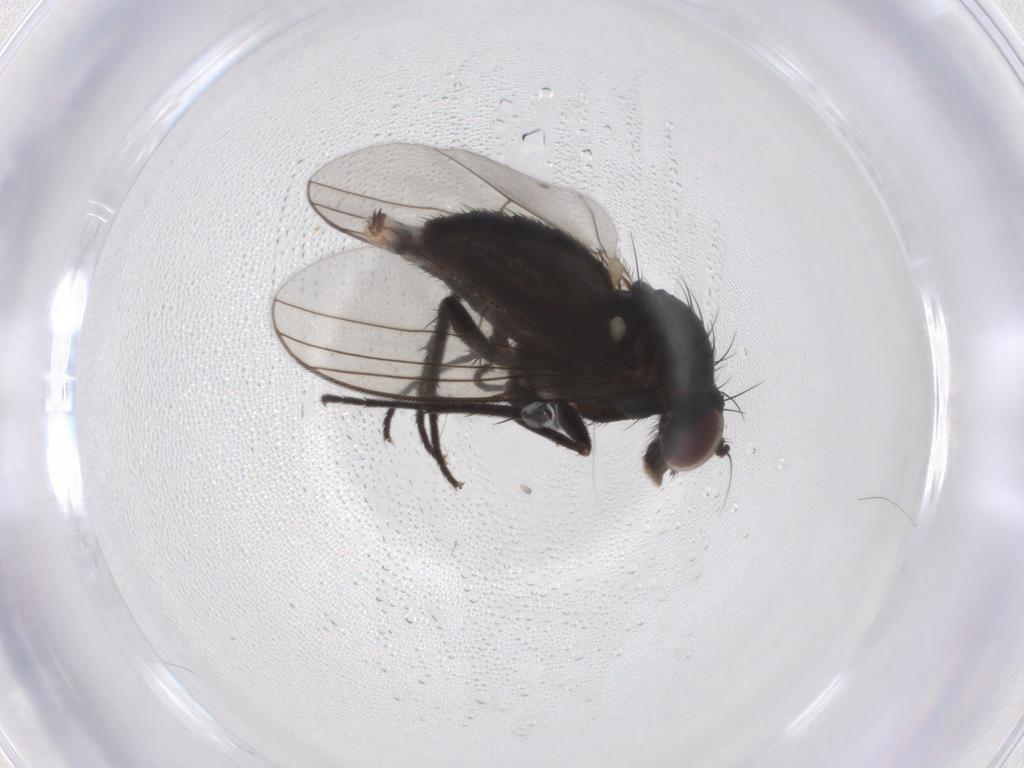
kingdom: Animalia
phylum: Arthropoda
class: Insecta
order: Diptera
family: Dolichopodidae
